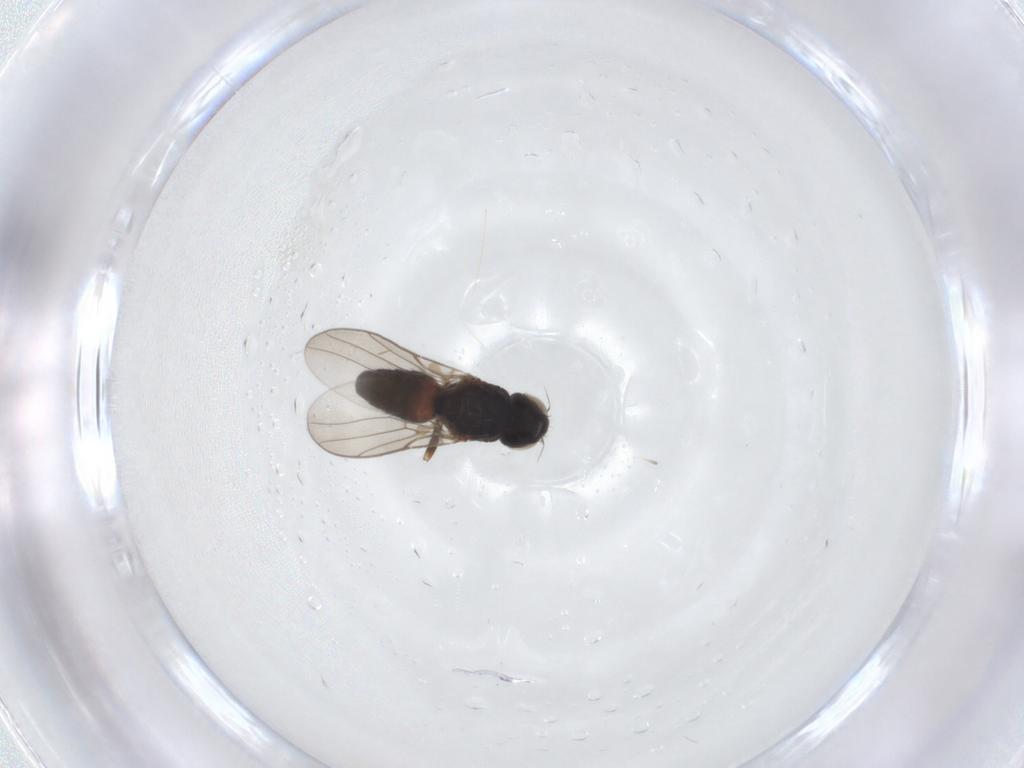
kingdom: Animalia
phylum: Arthropoda
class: Insecta
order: Diptera
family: Chloropidae
